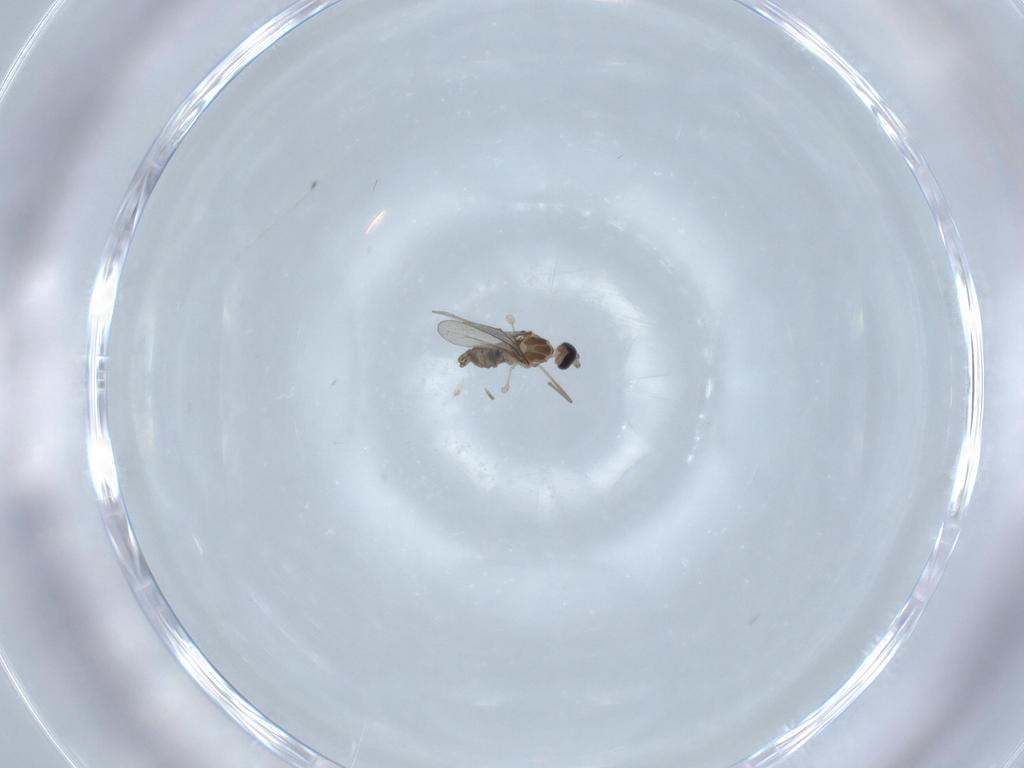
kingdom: Animalia
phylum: Arthropoda
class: Insecta
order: Diptera
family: Cecidomyiidae
